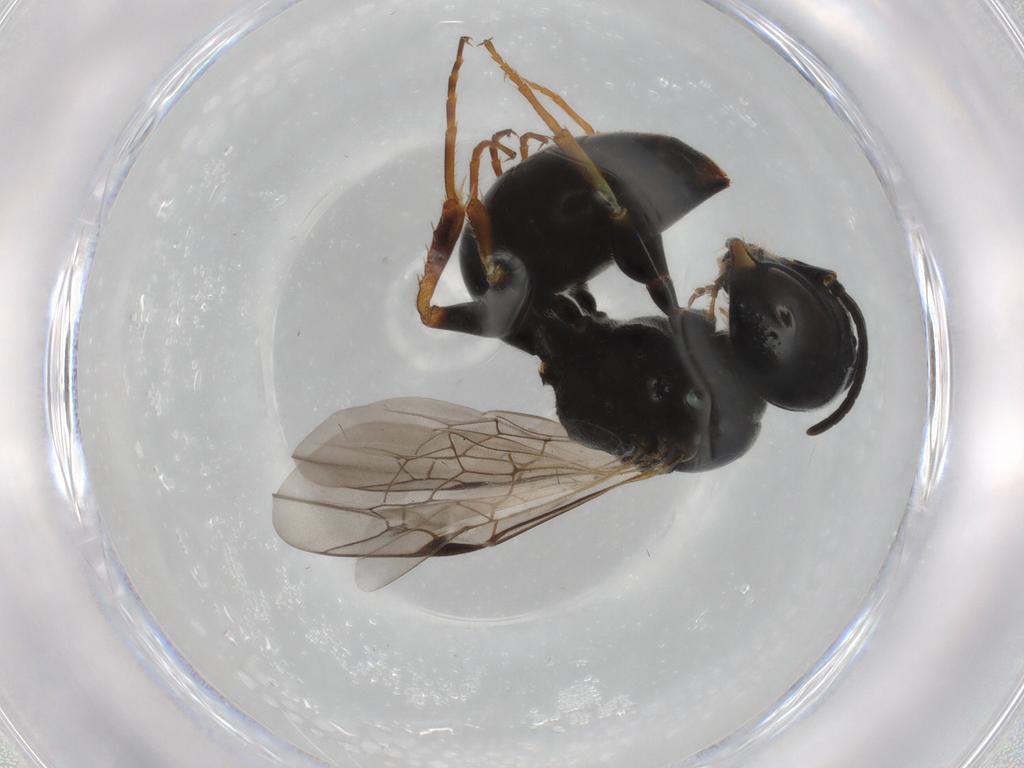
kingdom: Animalia
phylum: Arthropoda
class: Insecta
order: Hymenoptera
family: Crabronidae
